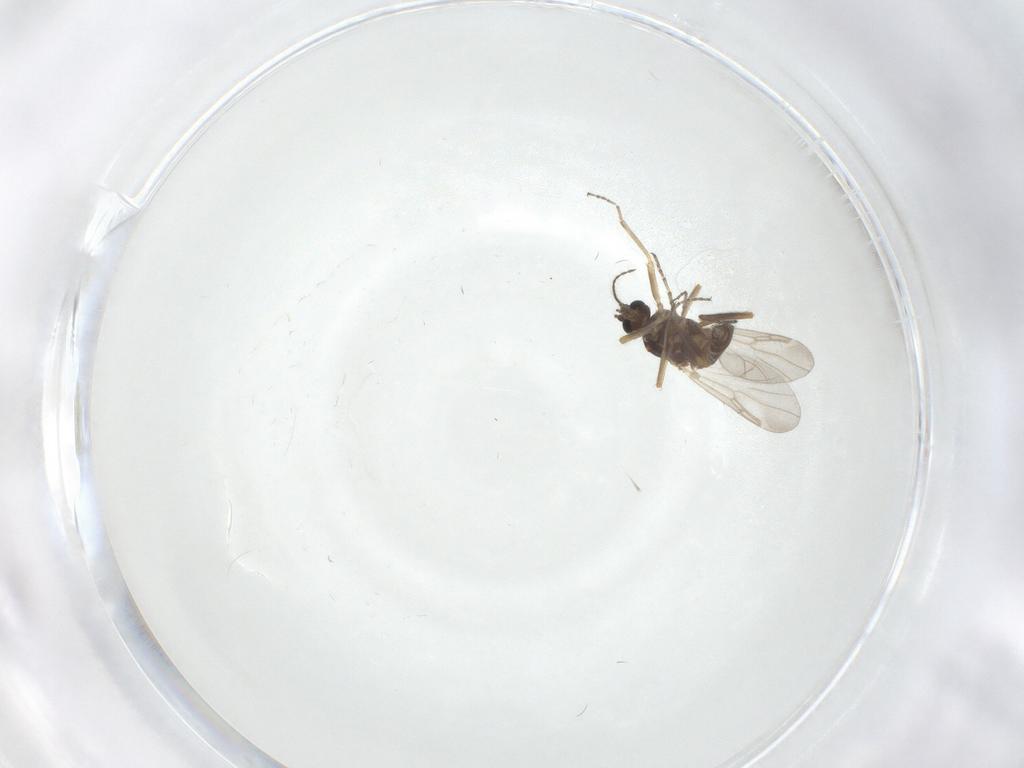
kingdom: Animalia
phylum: Arthropoda
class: Insecta
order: Diptera
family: Ceratopogonidae
